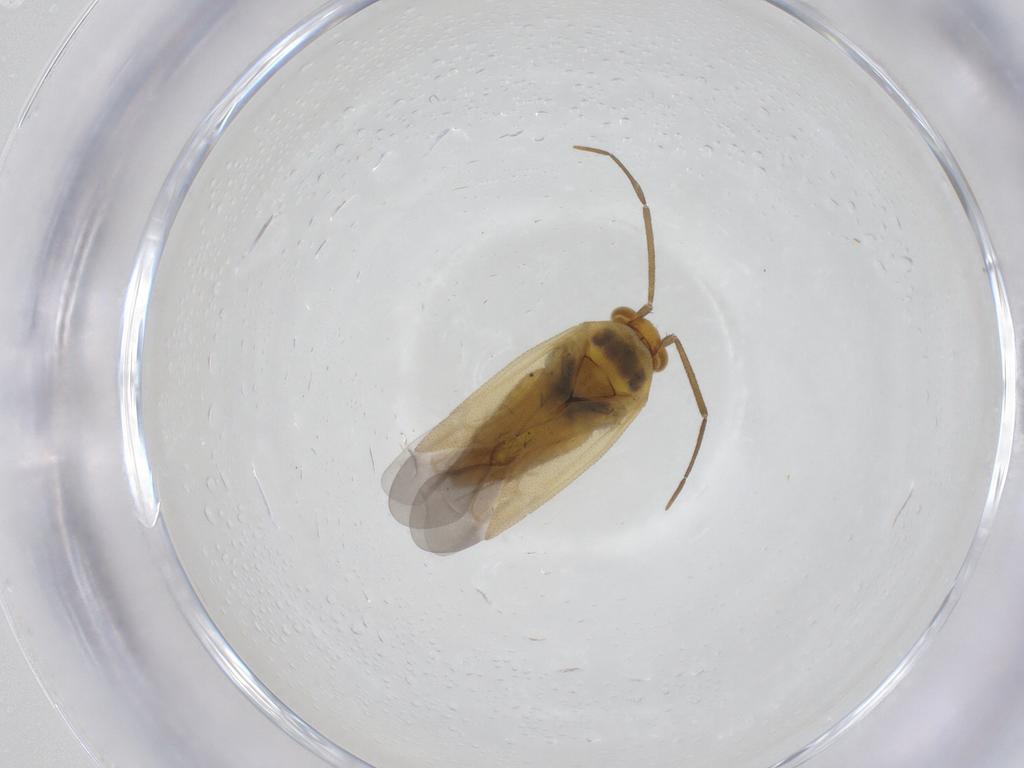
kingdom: Animalia
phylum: Arthropoda
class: Insecta
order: Hemiptera
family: Miridae
